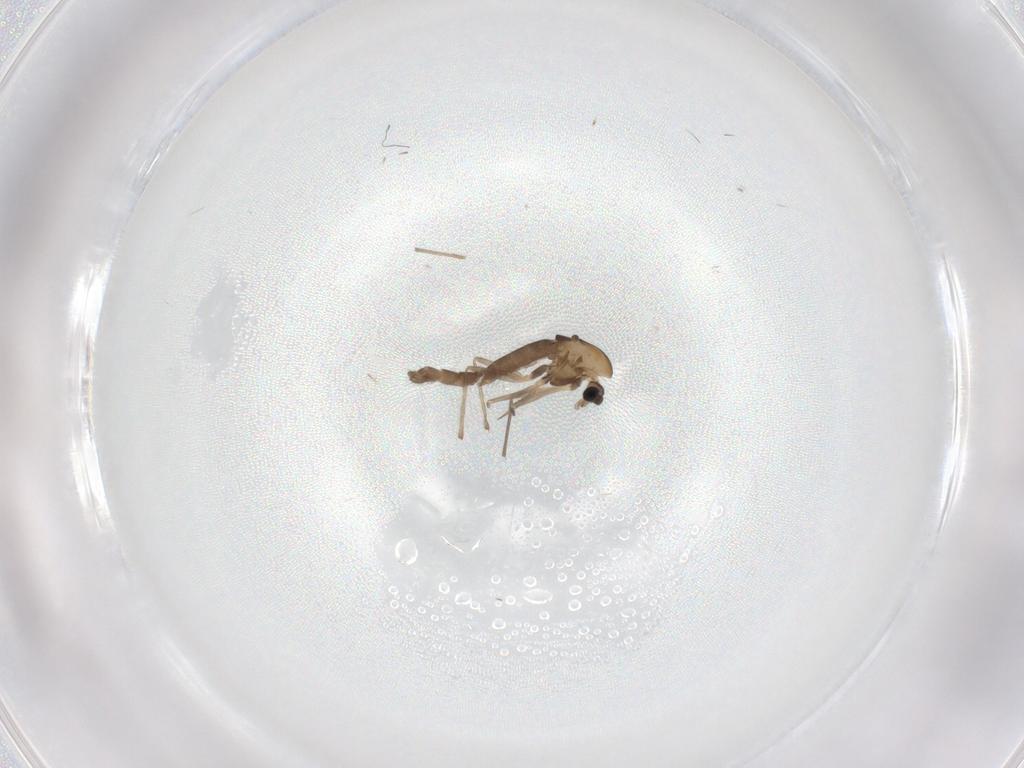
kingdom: Animalia
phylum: Arthropoda
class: Insecta
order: Diptera
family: Chironomidae
